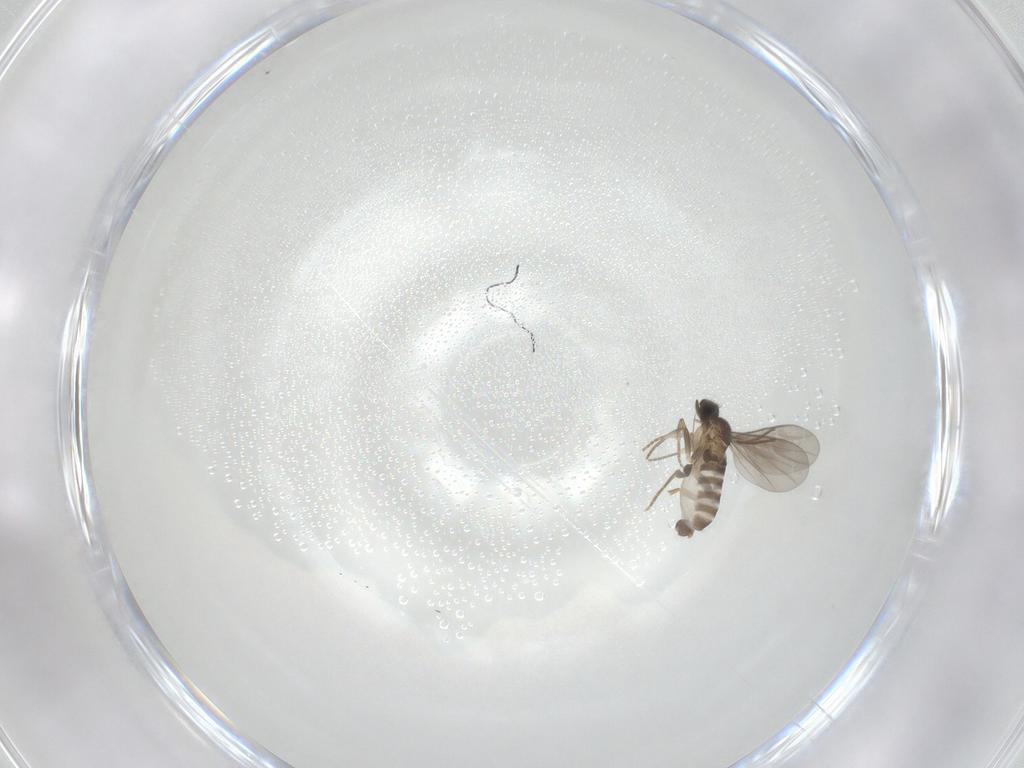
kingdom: Animalia
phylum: Arthropoda
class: Insecta
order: Diptera
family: Sciaridae
